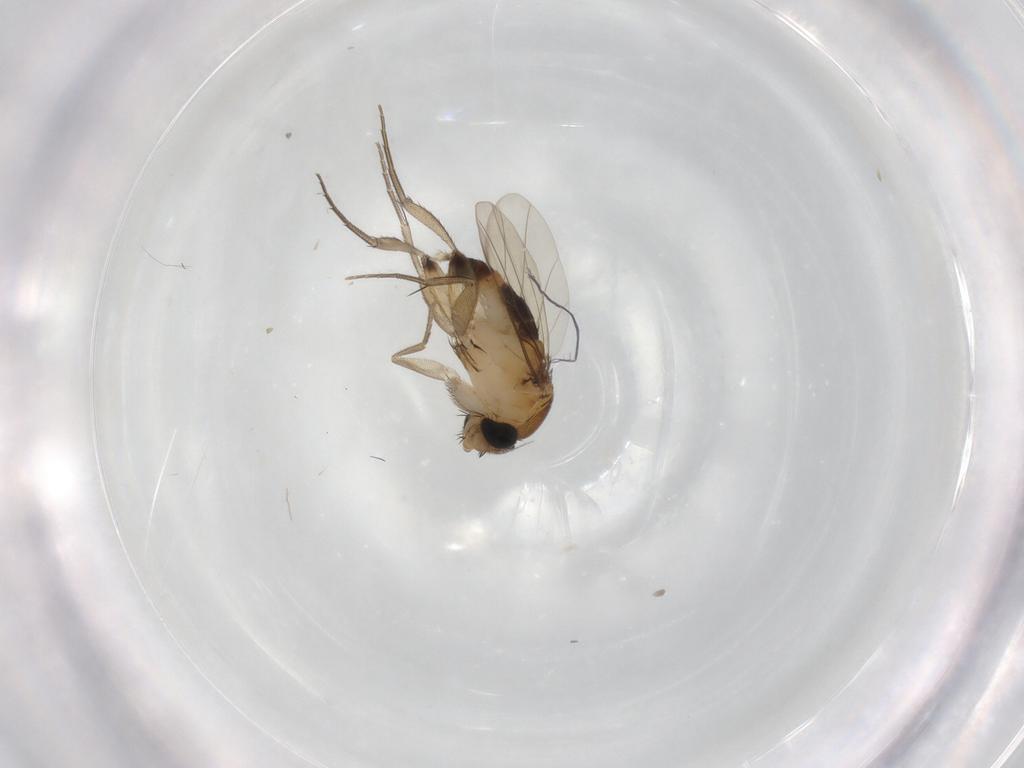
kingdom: Animalia
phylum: Arthropoda
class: Insecta
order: Diptera
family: Phoridae
